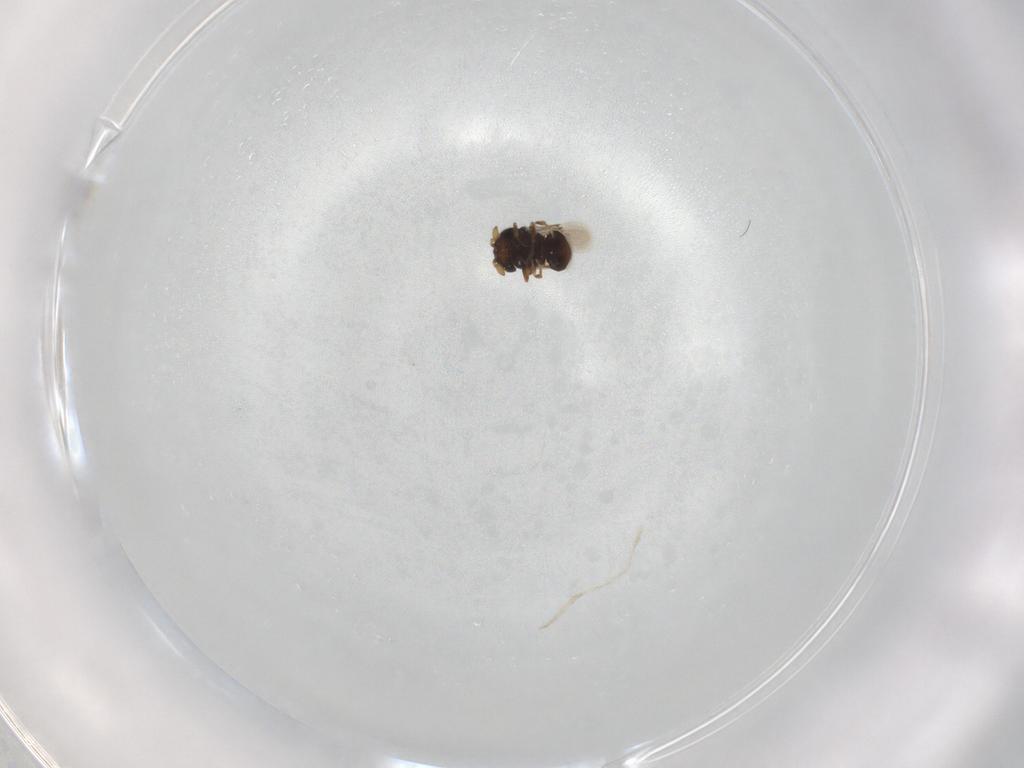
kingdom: Animalia
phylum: Arthropoda
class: Insecta
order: Hymenoptera
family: Scelionidae
